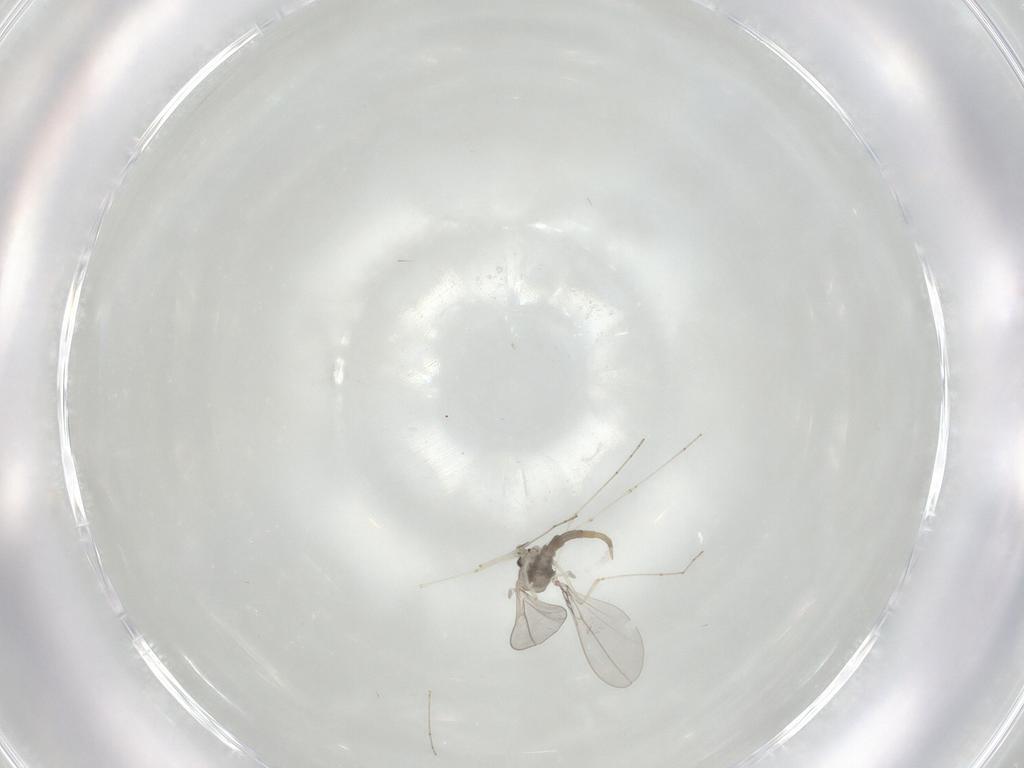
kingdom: Animalia
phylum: Arthropoda
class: Insecta
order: Diptera
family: Cecidomyiidae
